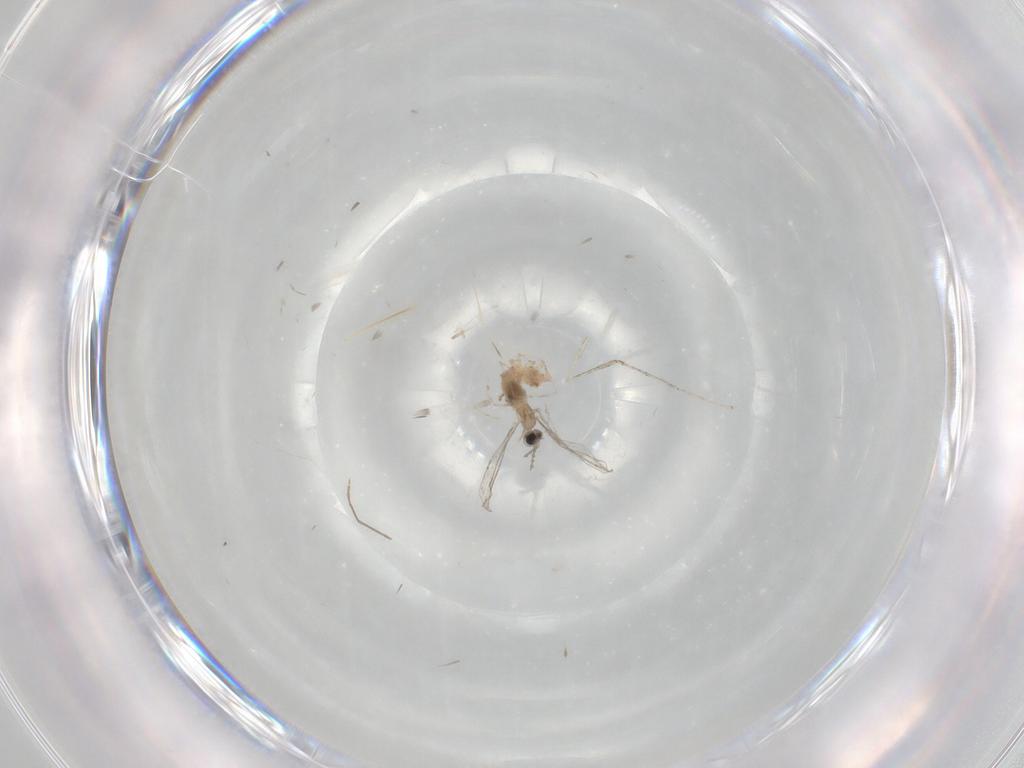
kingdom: Animalia
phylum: Arthropoda
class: Insecta
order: Diptera
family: Cecidomyiidae
